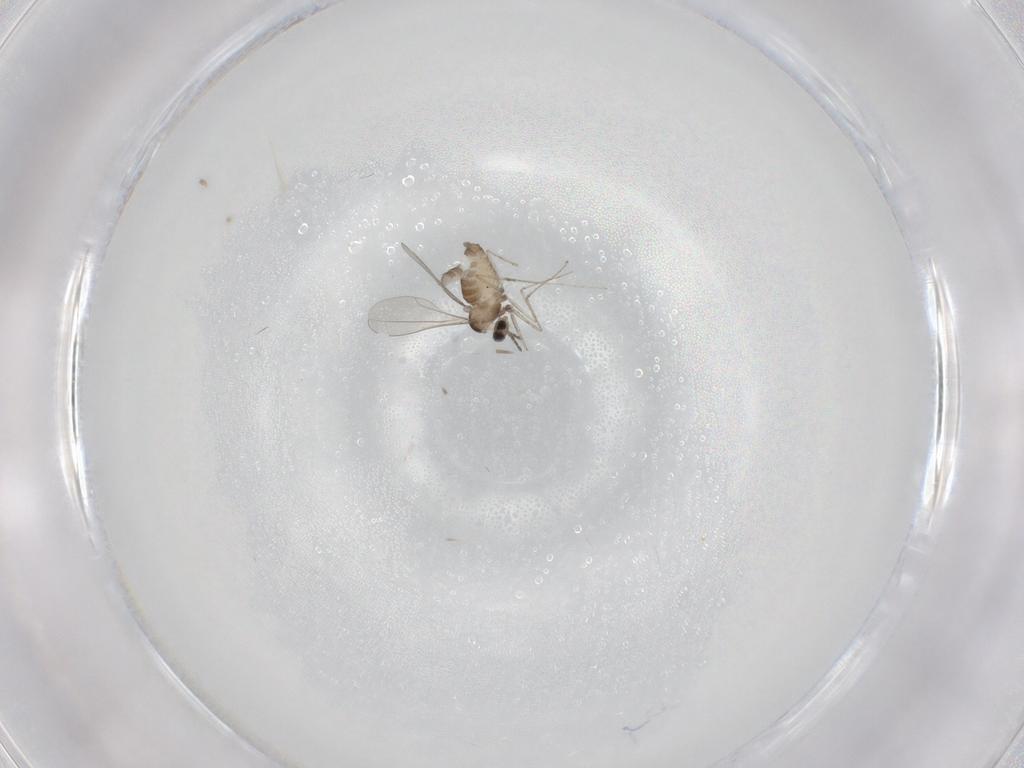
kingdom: Animalia
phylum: Arthropoda
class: Insecta
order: Diptera
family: Cecidomyiidae
